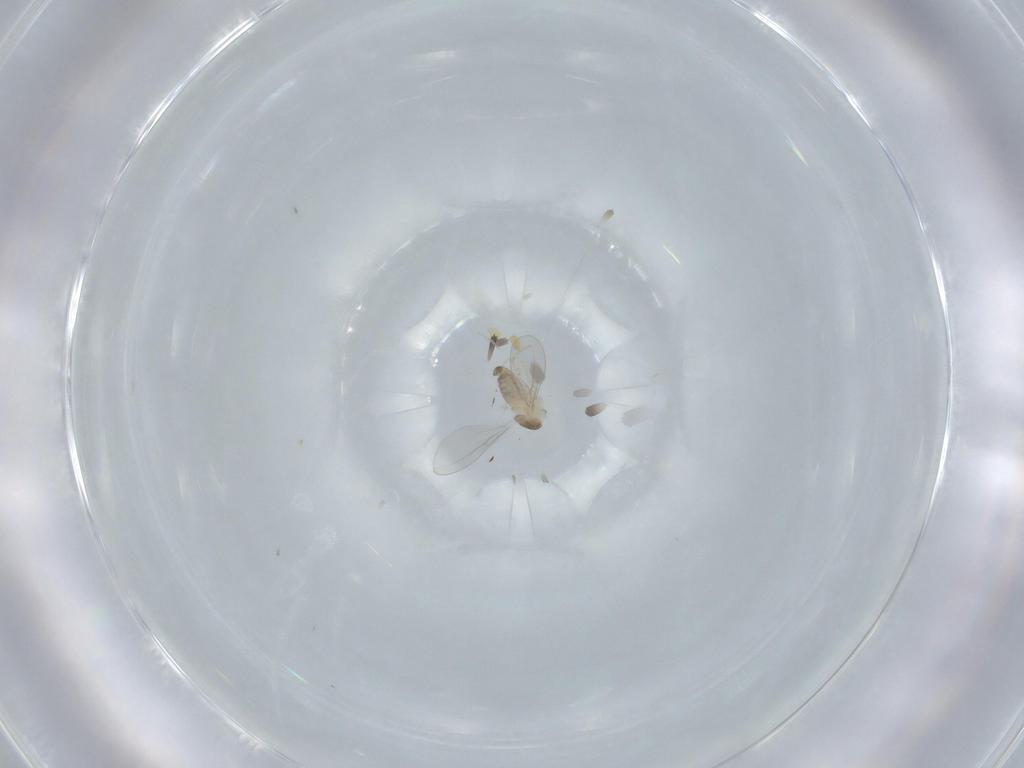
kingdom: Animalia
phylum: Arthropoda
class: Insecta
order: Diptera
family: Cecidomyiidae
